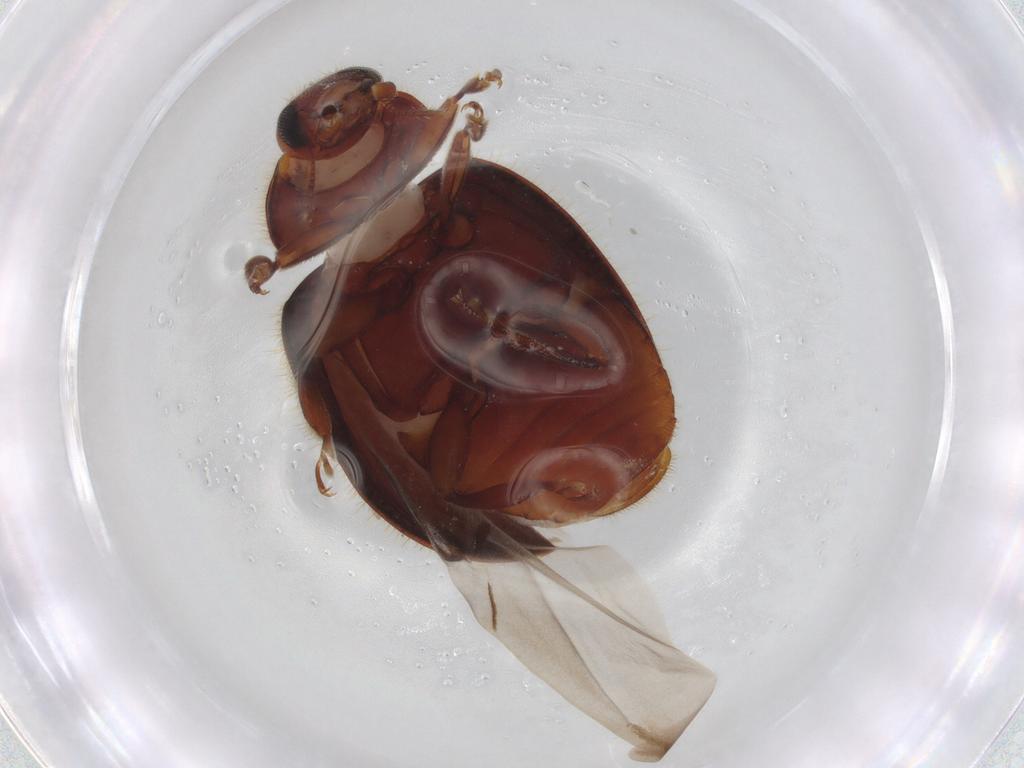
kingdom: Animalia
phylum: Arthropoda
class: Insecta
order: Coleoptera
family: Coccinellidae
